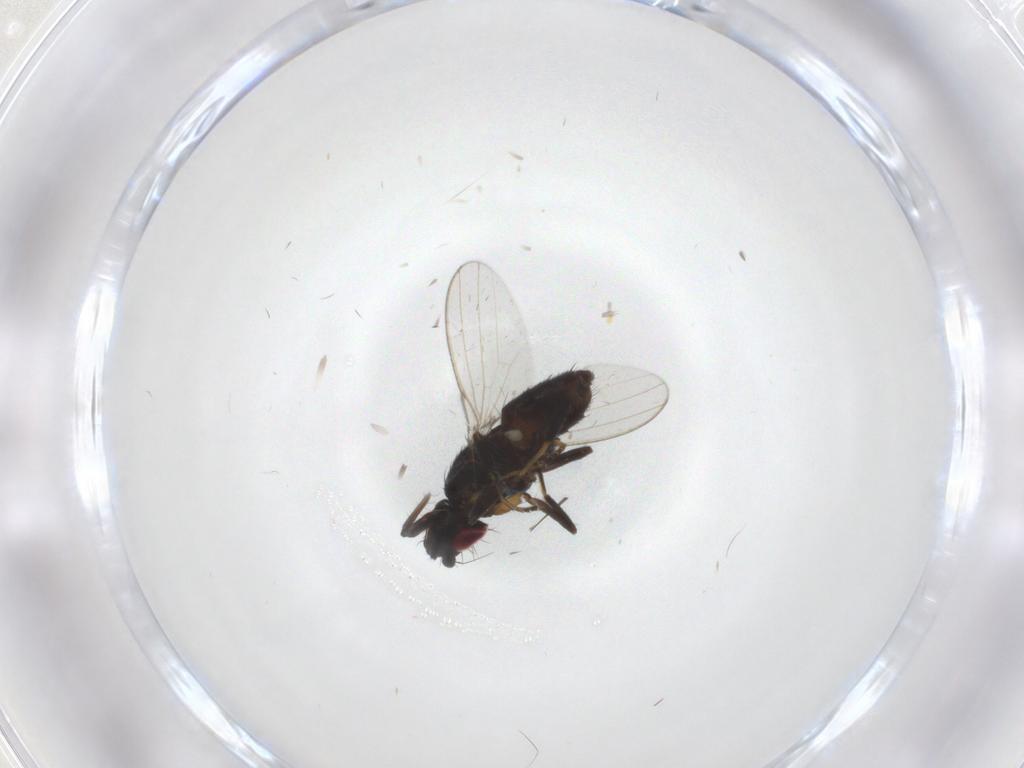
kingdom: Animalia
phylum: Arthropoda
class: Insecta
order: Diptera
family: Milichiidae
